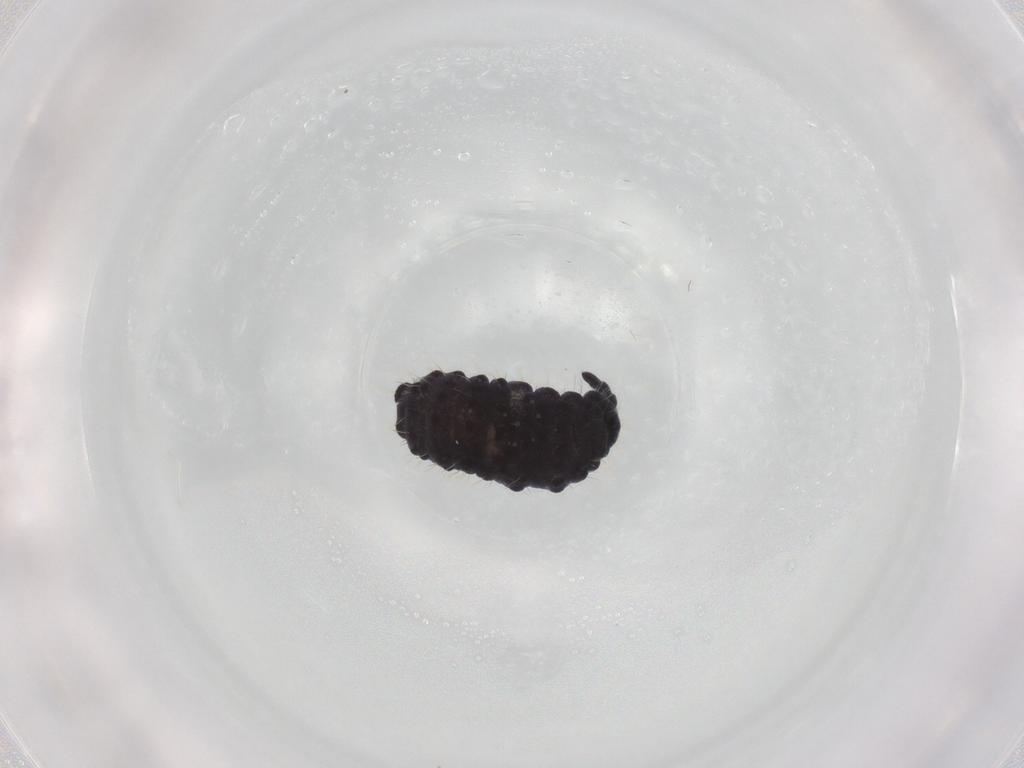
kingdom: Animalia
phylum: Arthropoda
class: Collembola
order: Poduromorpha
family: Neanuridae
